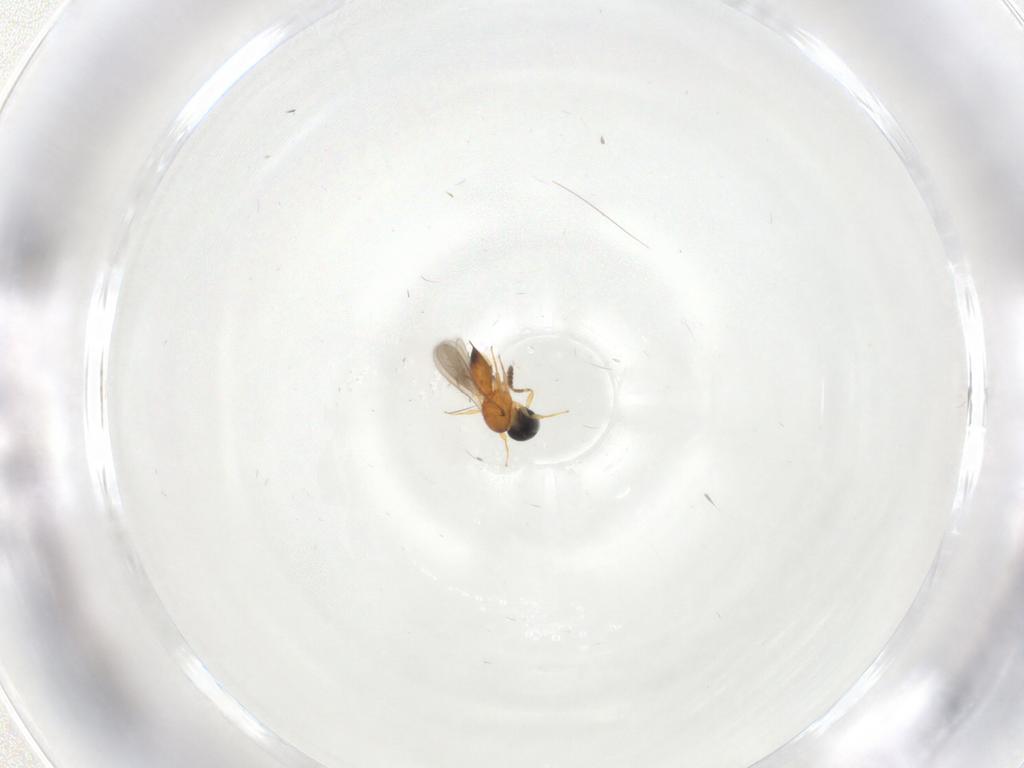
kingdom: Animalia
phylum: Arthropoda
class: Insecta
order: Hymenoptera
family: Scelionidae
